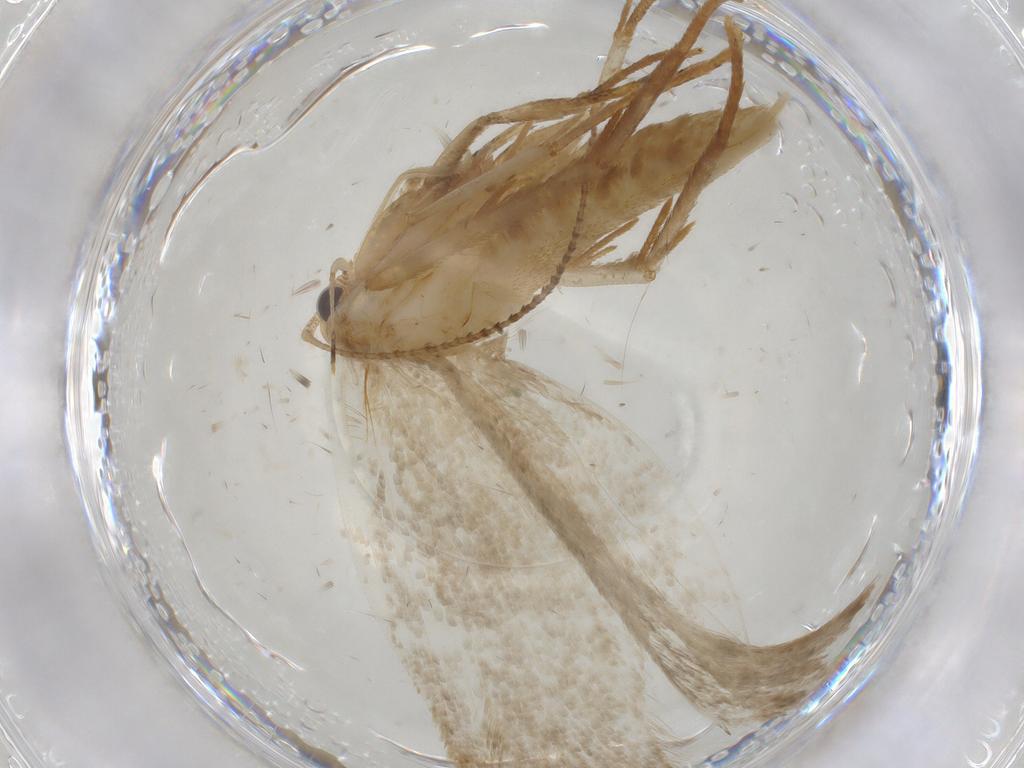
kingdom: Animalia
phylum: Arthropoda
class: Insecta
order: Lepidoptera
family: Gelechiidae
